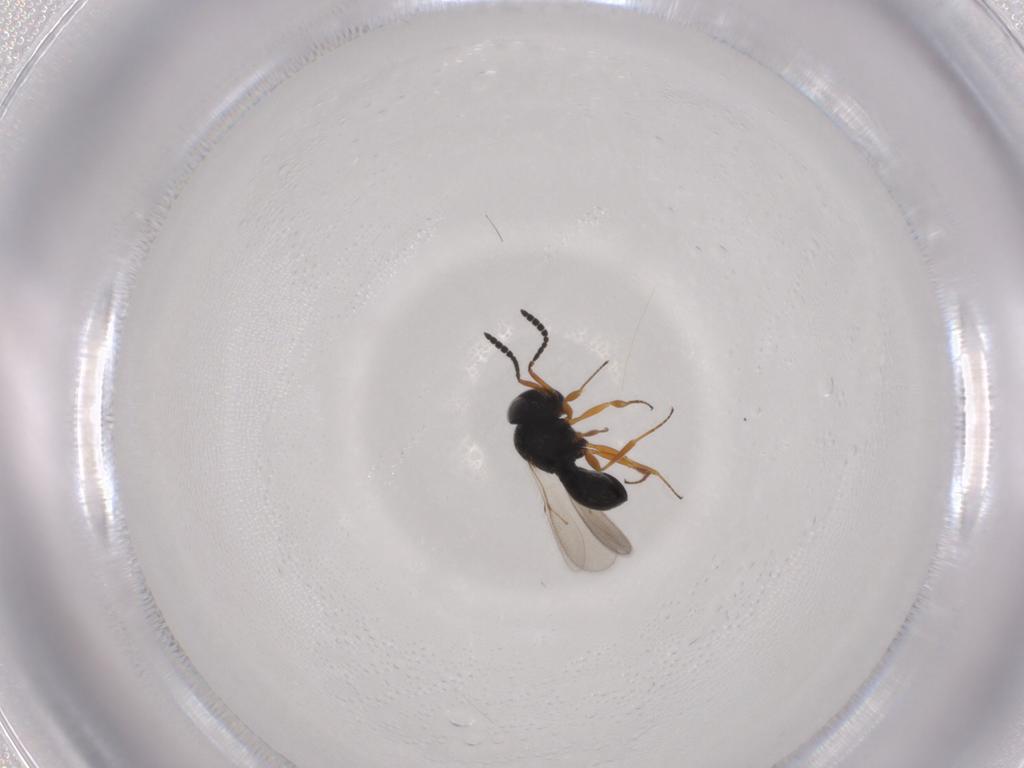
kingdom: Animalia
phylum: Arthropoda
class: Insecta
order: Hymenoptera
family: Scelionidae
